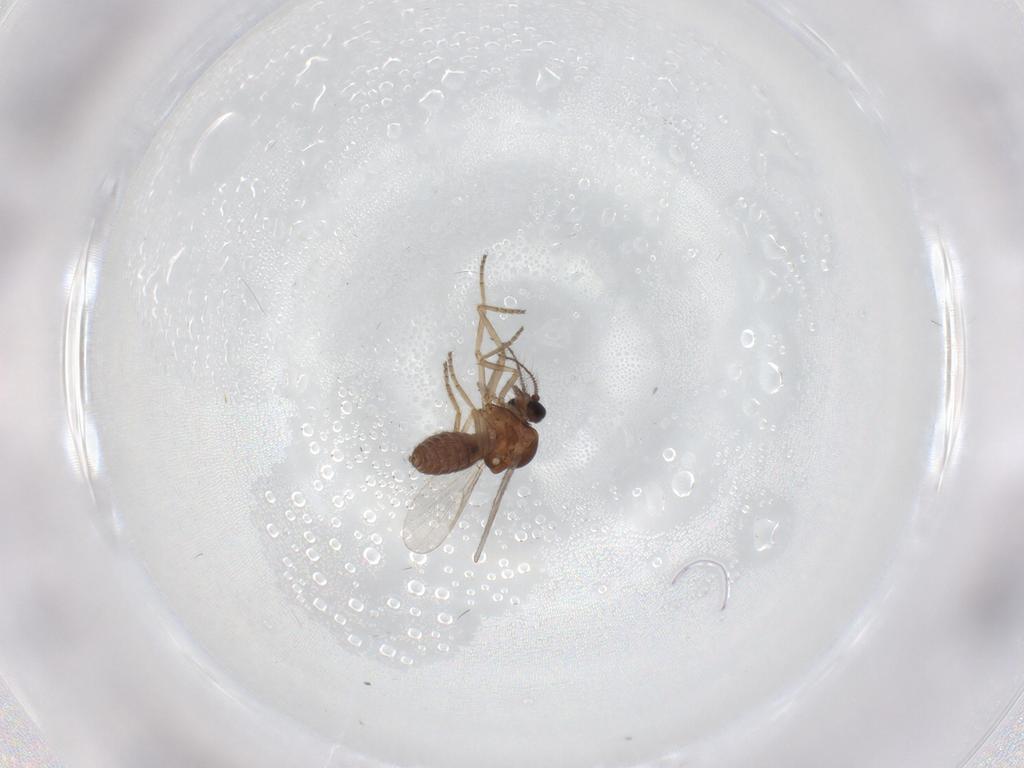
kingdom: Animalia
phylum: Arthropoda
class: Insecta
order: Diptera
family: Ceratopogonidae
